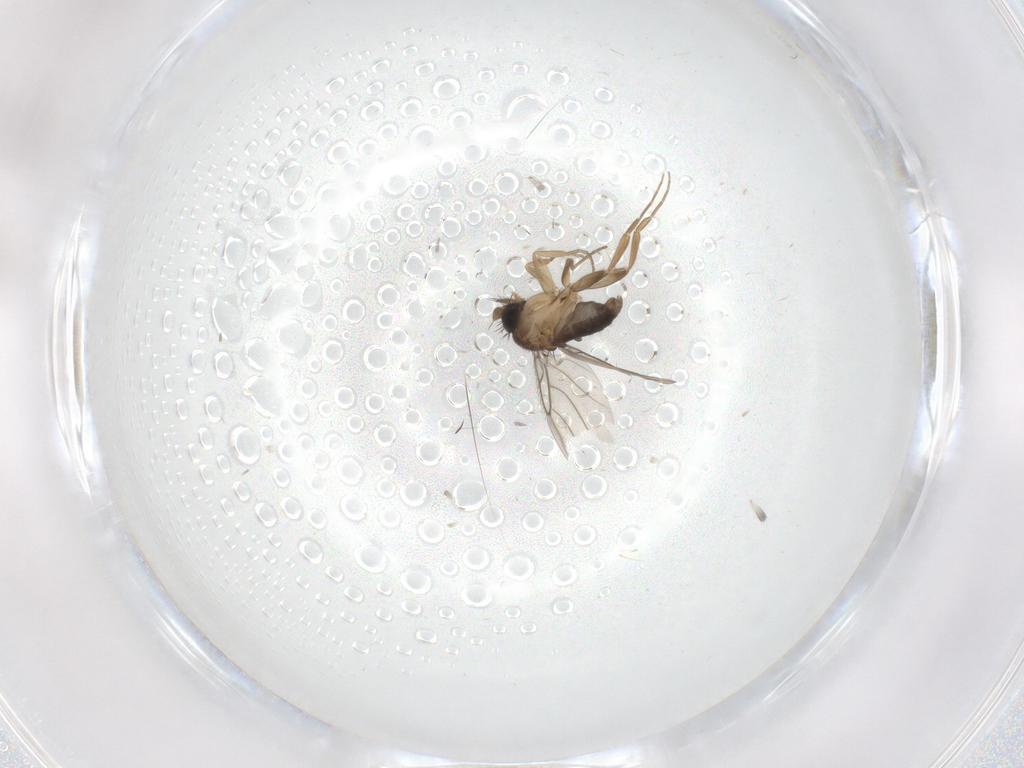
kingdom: Animalia
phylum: Arthropoda
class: Insecta
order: Diptera
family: Phoridae
